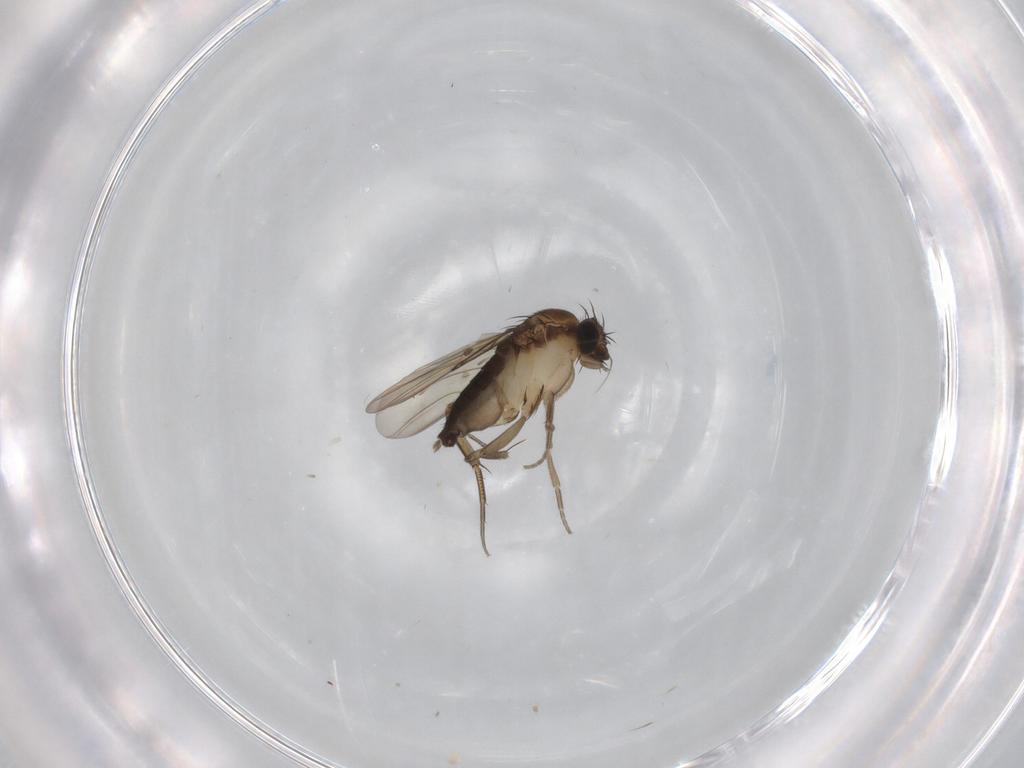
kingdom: Animalia
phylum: Arthropoda
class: Insecta
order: Diptera
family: Phoridae
